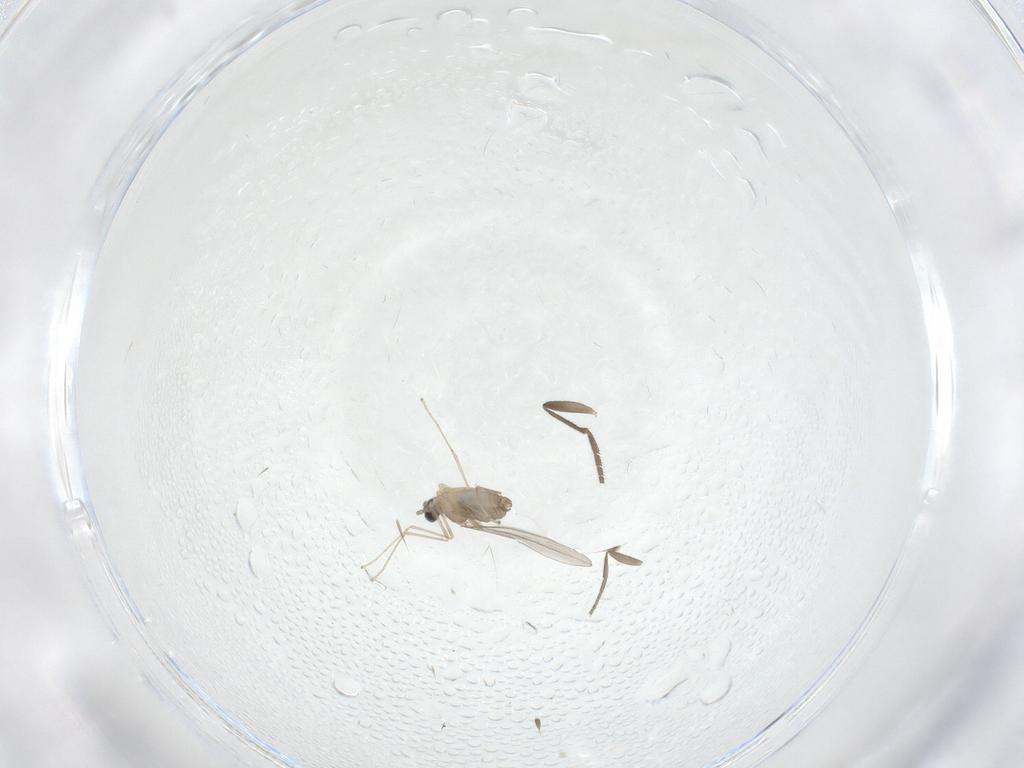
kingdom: Animalia
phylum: Arthropoda
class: Insecta
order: Diptera
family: Phoridae
